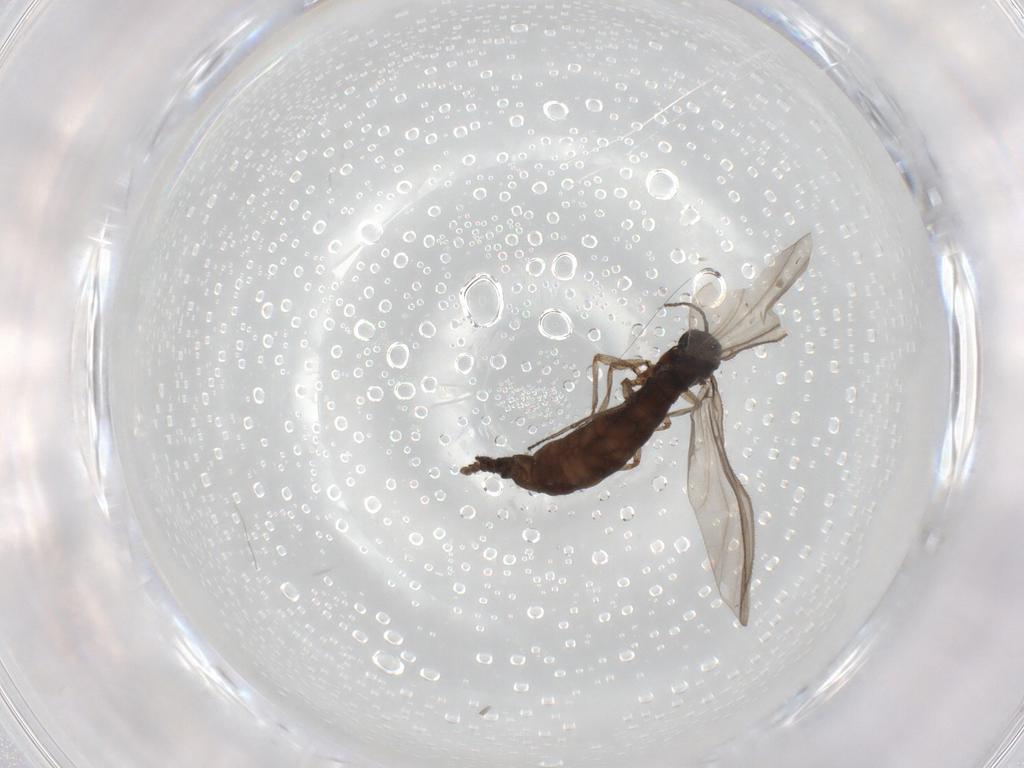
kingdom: Animalia
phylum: Arthropoda
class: Insecta
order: Diptera
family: Sciaridae
